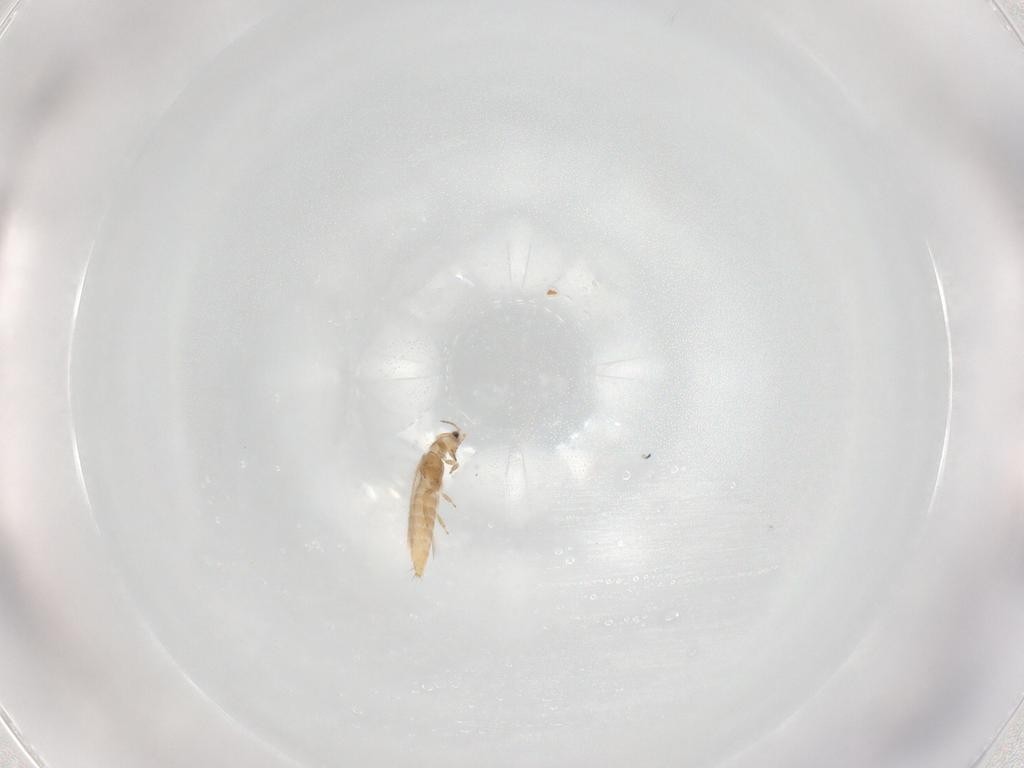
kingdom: Animalia
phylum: Arthropoda
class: Insecta
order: Thysanoptera
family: Thripidae
